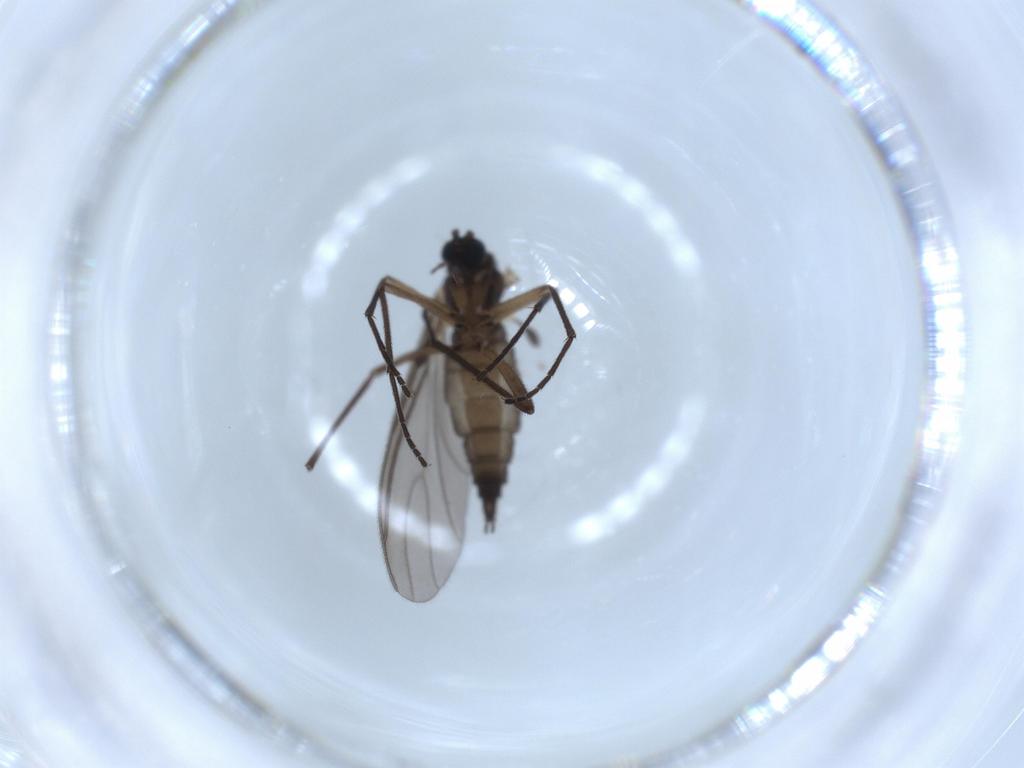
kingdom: Animalia
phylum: Arthropoda
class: Insecta
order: Diptera
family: Sciaridae
